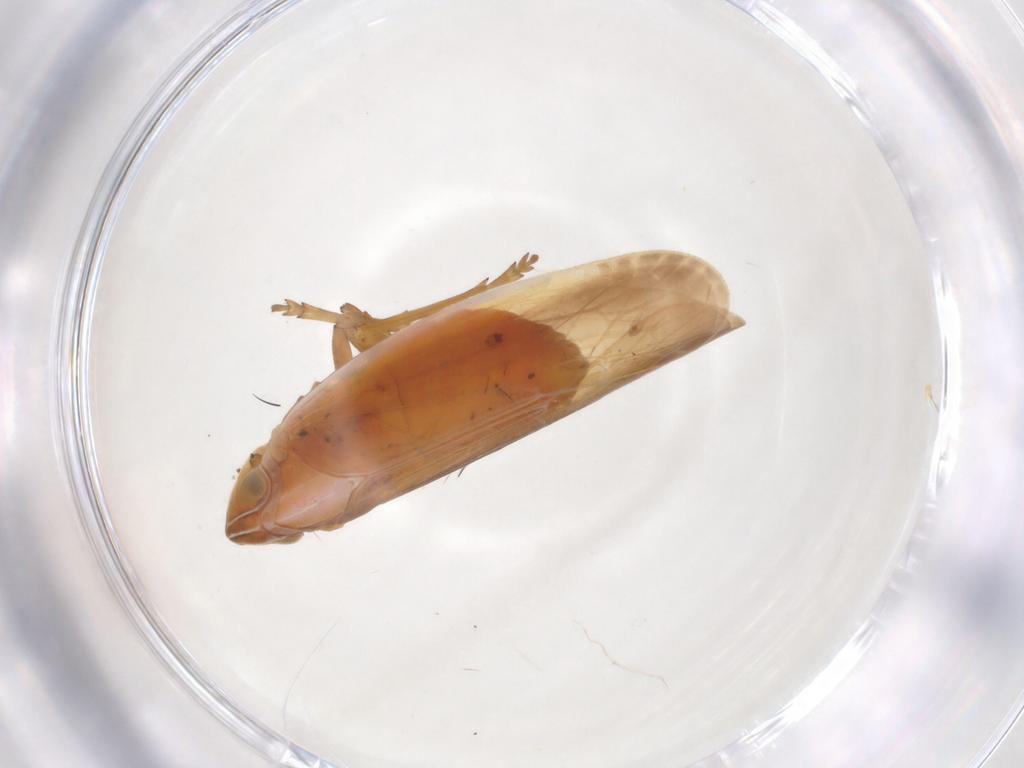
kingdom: Animalia
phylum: Arthropoda
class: Insecta
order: Hemiptera
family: Achilidae
